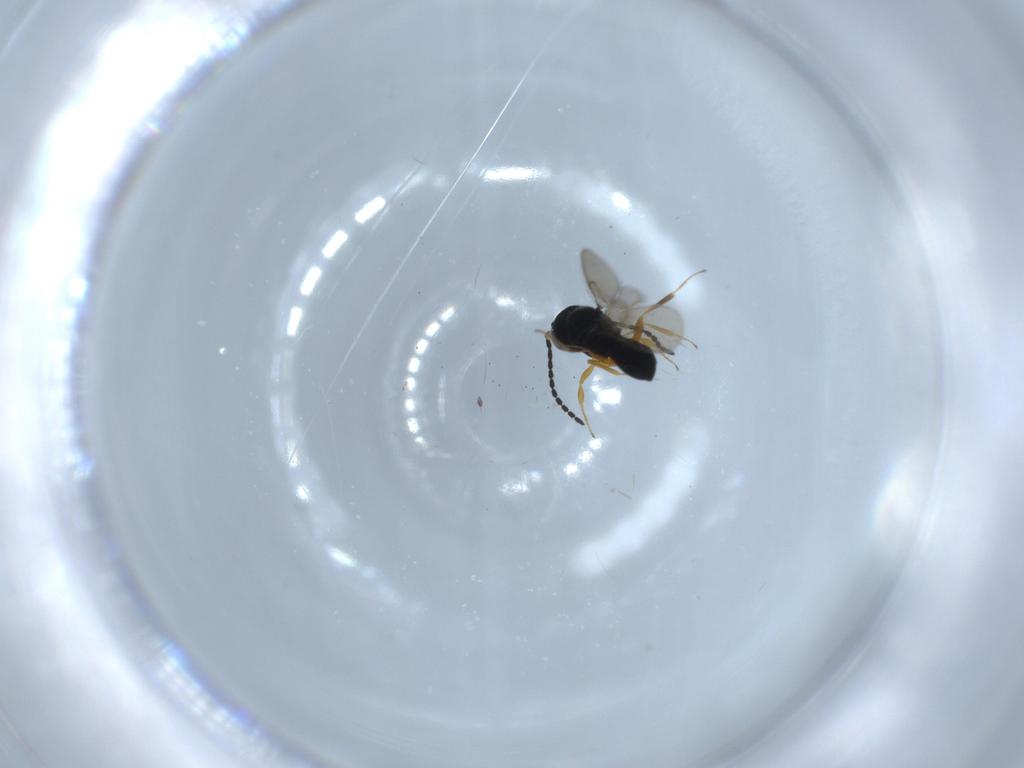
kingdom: Animalia
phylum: Arthropoda
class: Insecta
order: Hymenoptera
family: Scelionidae
